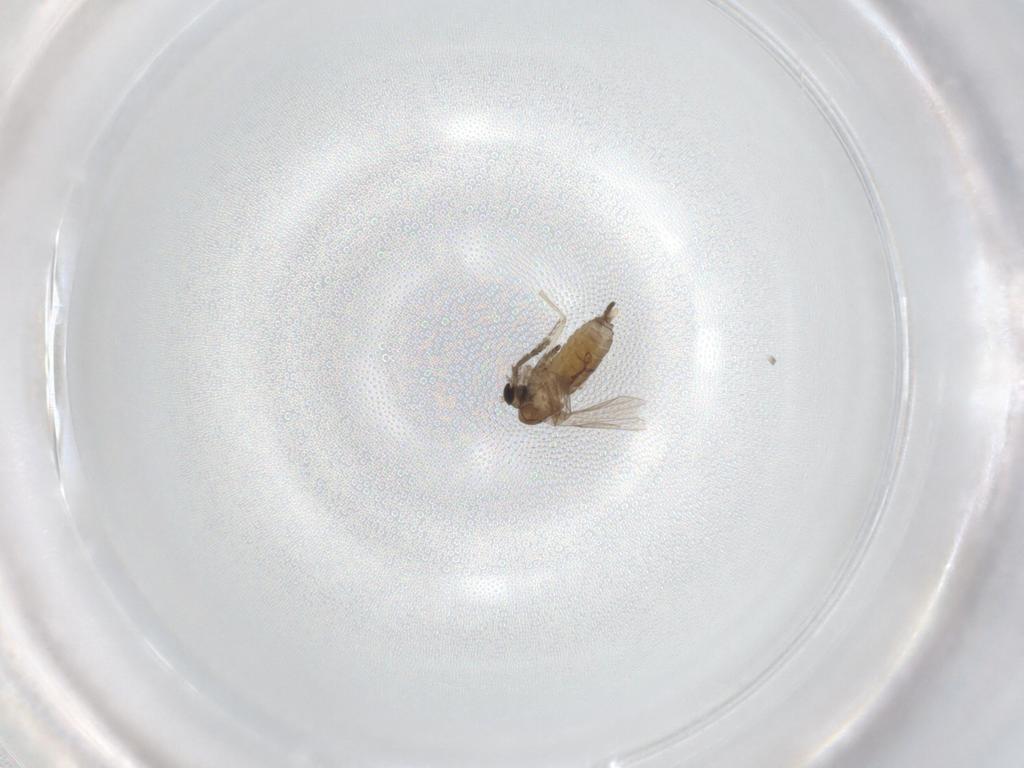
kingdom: Animalia
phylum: Arthropoda
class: Insecta
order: Diptera
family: Psychodidae
